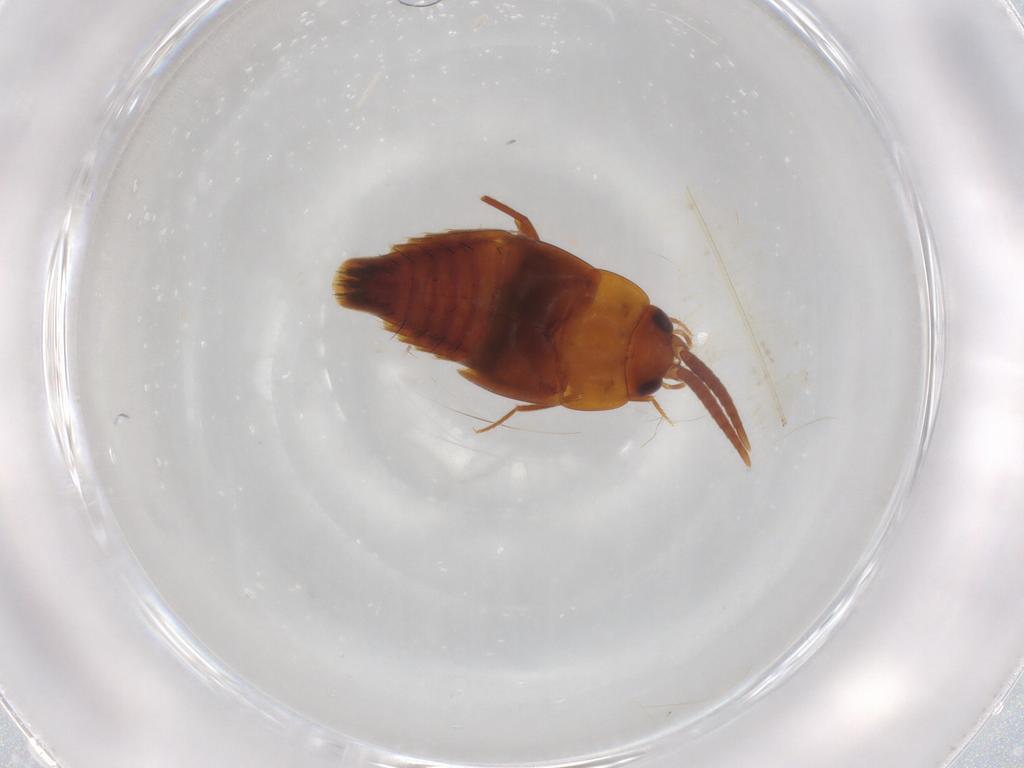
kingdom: Animalia
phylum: Arthropoda
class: Insecta
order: Coleoptera
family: Staphylinidae
